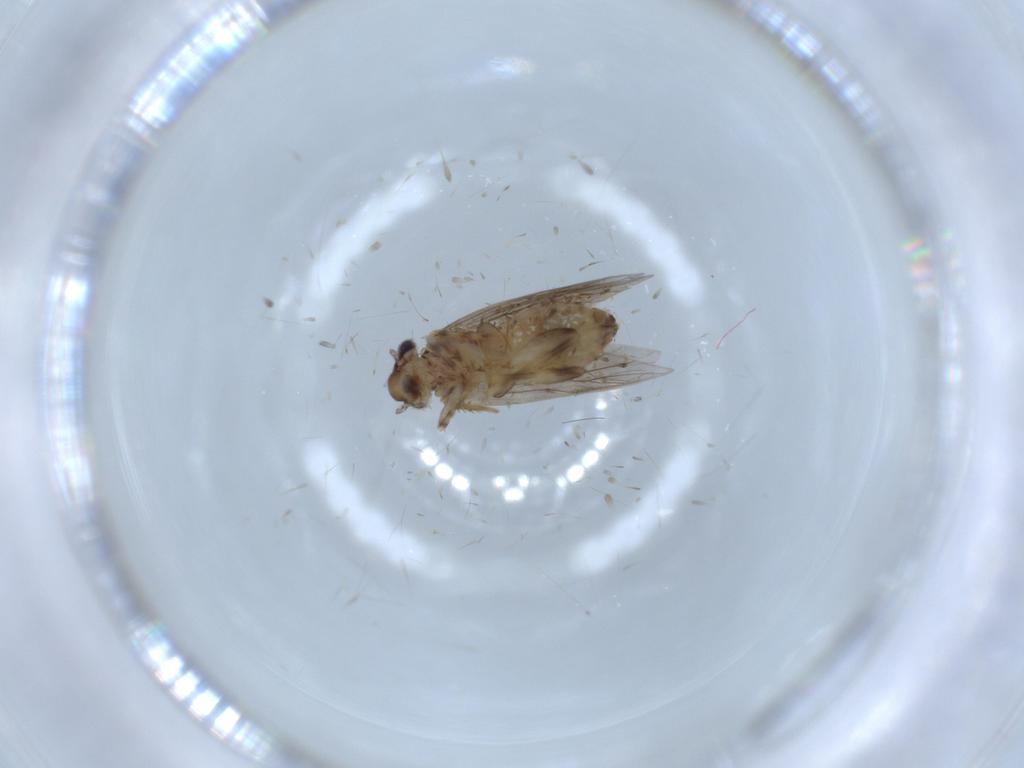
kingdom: Animalia
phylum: Arthropoda
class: Insecta
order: Psocodea
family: Lepidopsocidae
